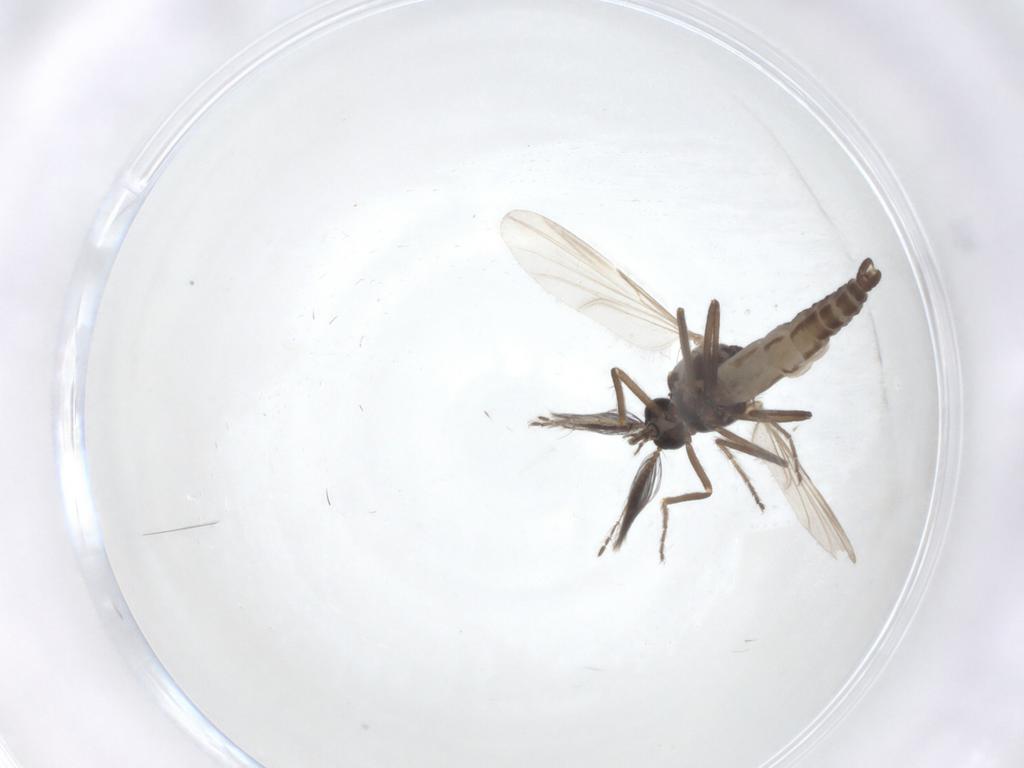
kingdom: Animalia
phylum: Arthropoda
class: Insecta
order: Diptera
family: Ceratopogonidae
